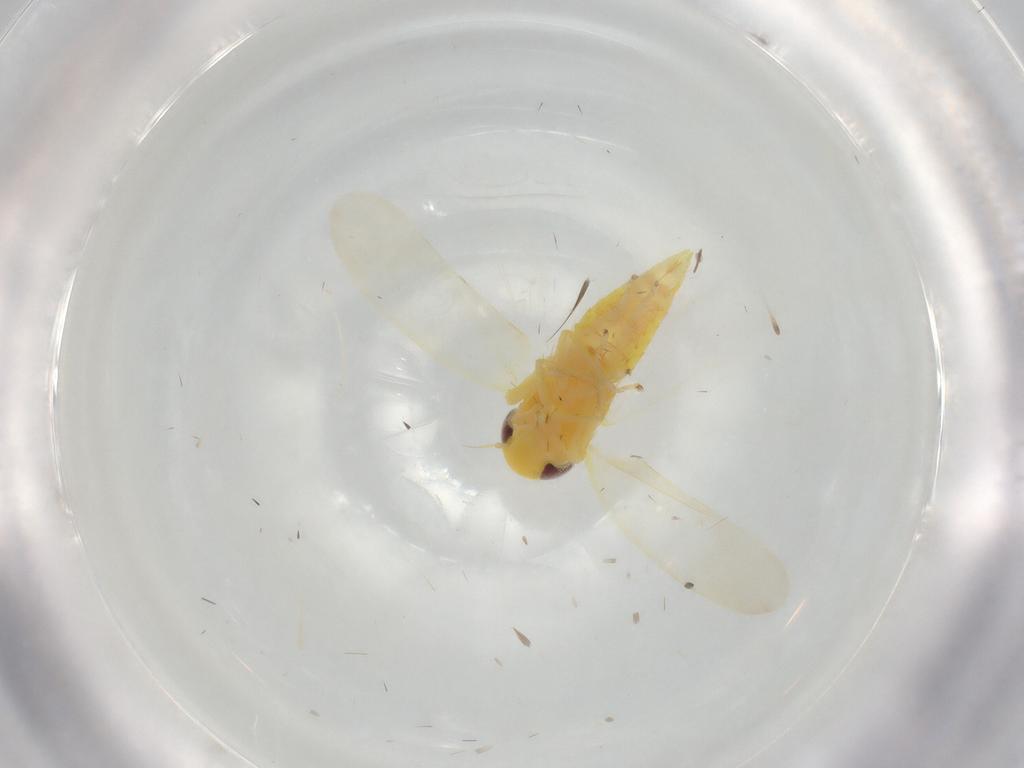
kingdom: Animalia
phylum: Arthropoda
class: Insecta
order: Hemiptera
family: Cicadellidae
